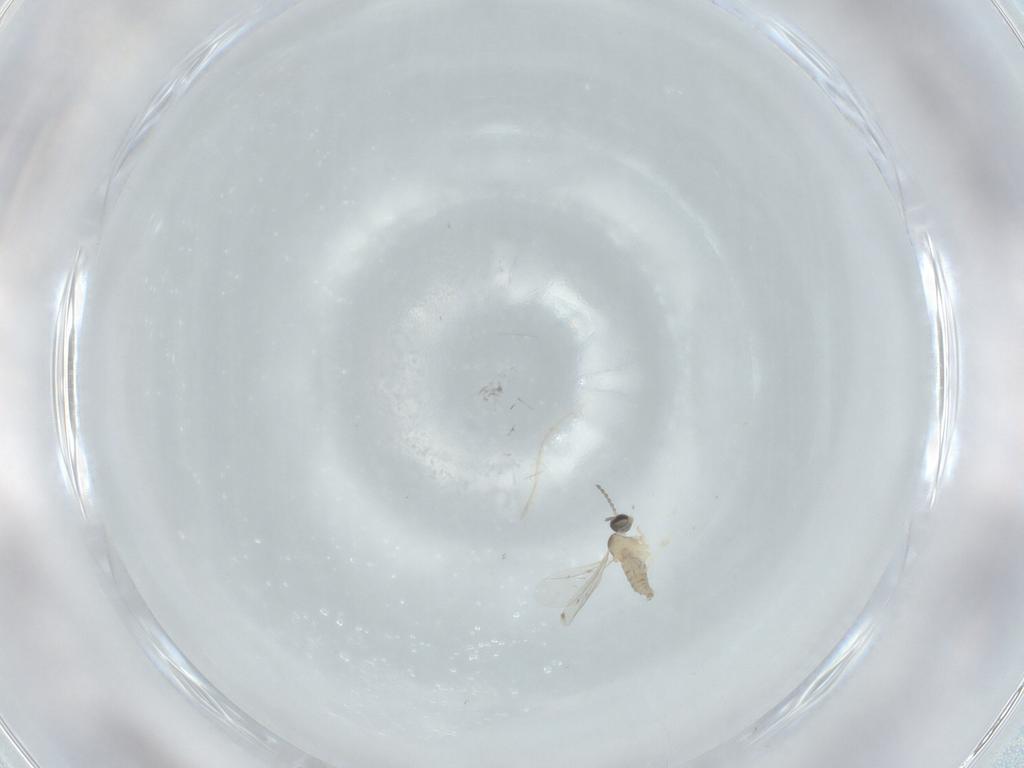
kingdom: Animalia
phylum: Arthropoda
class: Insecta
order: Diptera
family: Cecidomyiidae
